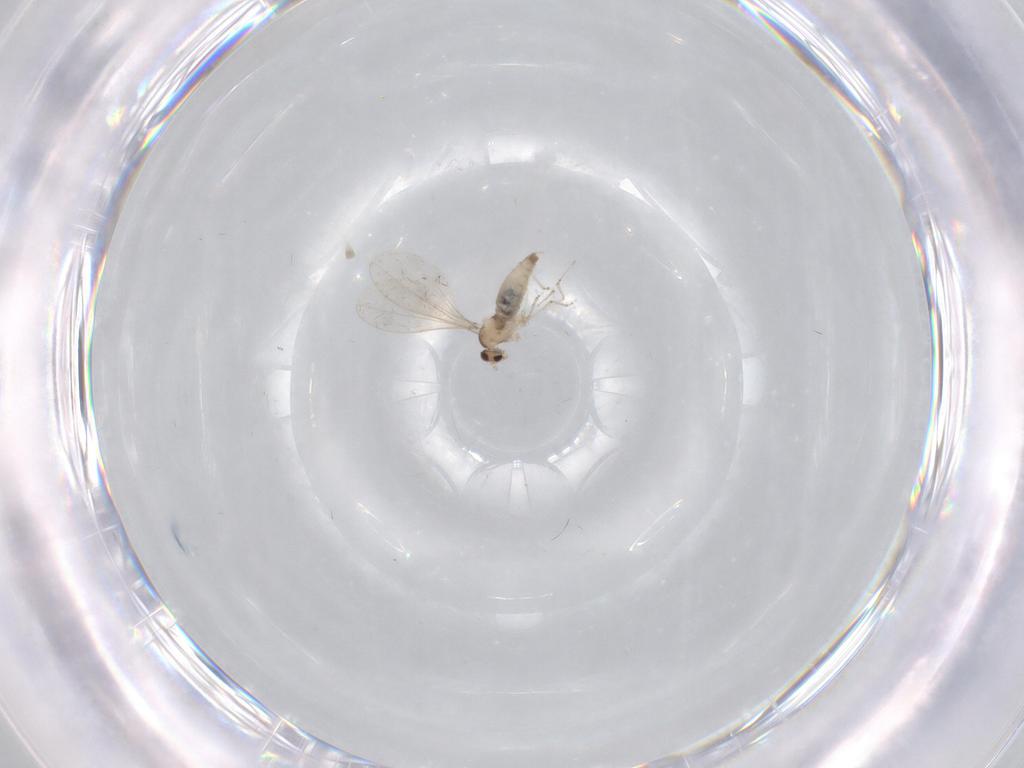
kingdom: Animalia
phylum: Arthropoda
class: Insecta
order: Diptera
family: Cecidomyiidae
